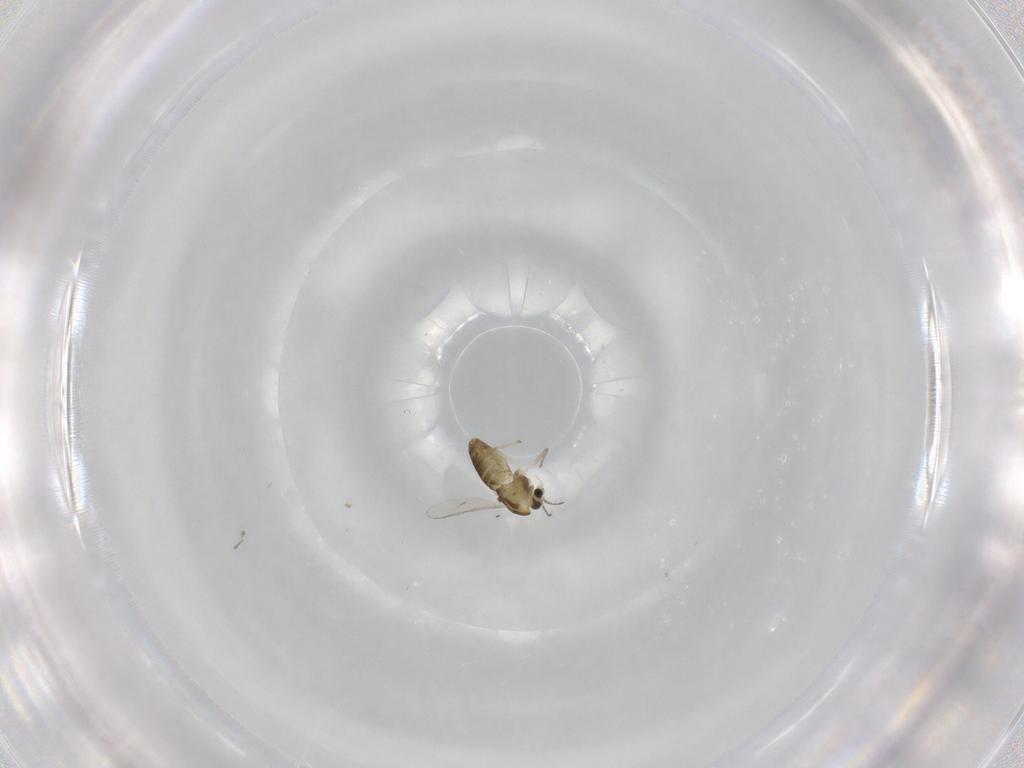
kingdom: Animalia
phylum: Arthropoda
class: Insecta
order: Diptera
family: Chironomidae
